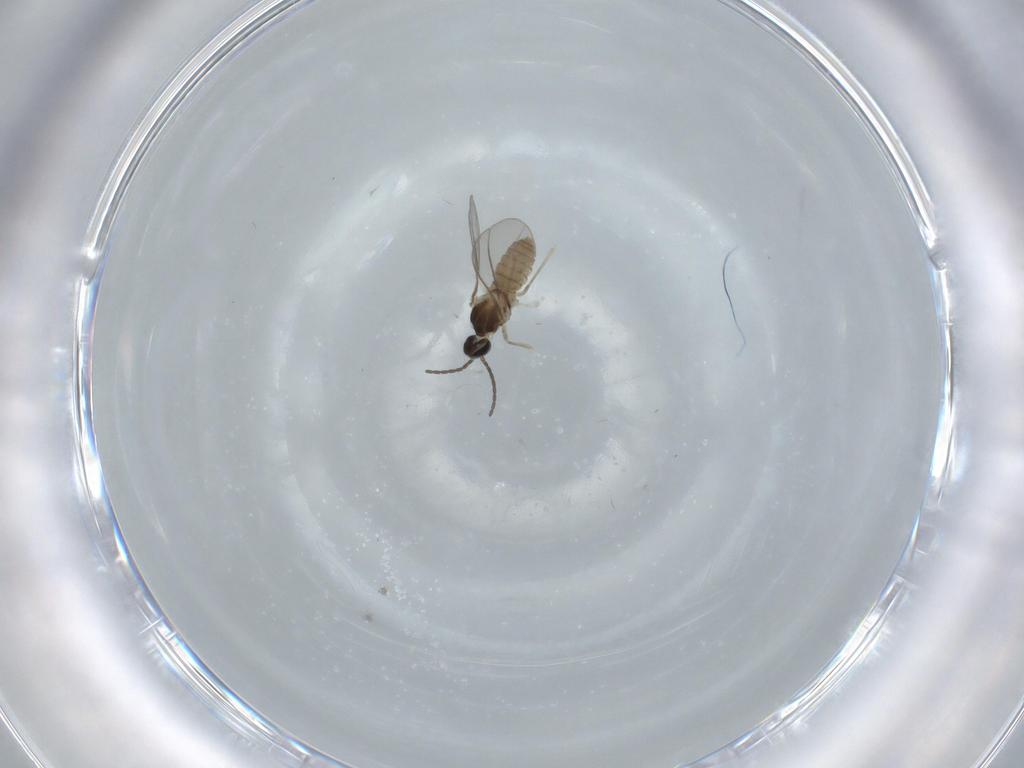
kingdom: Animalia
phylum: Arthropoda
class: Insecta
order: Diptera
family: Cecidomyiidae
